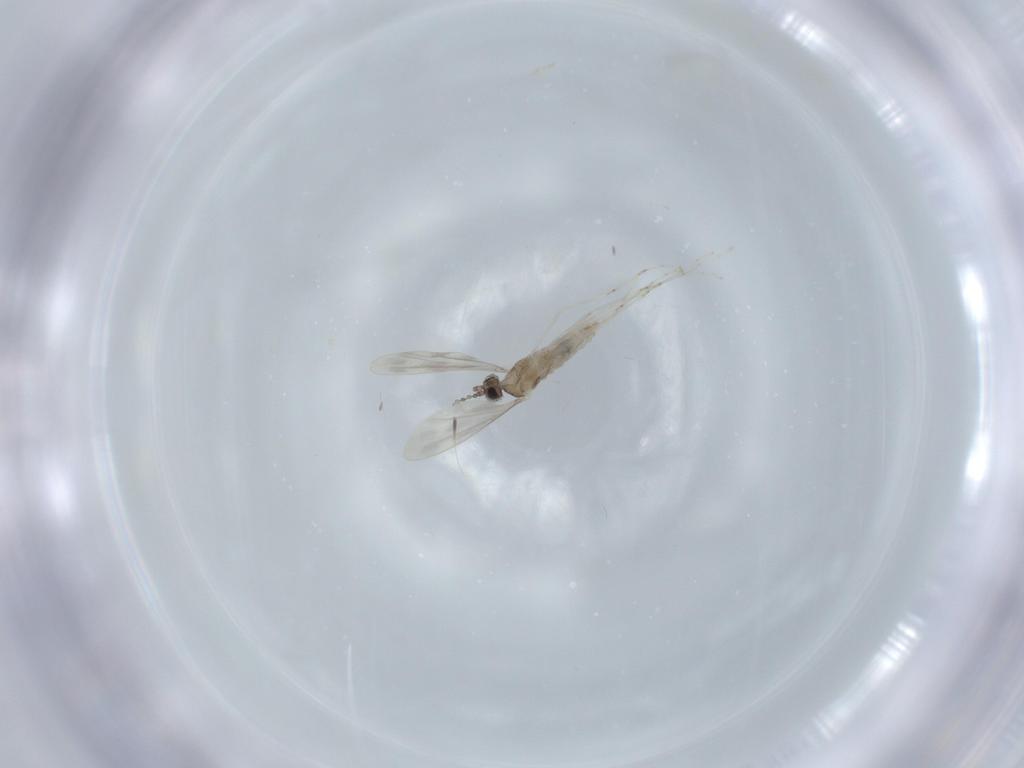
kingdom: Animalia
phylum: Arthropoda
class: Insecta
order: Diptera
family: Cecidomyiidae
